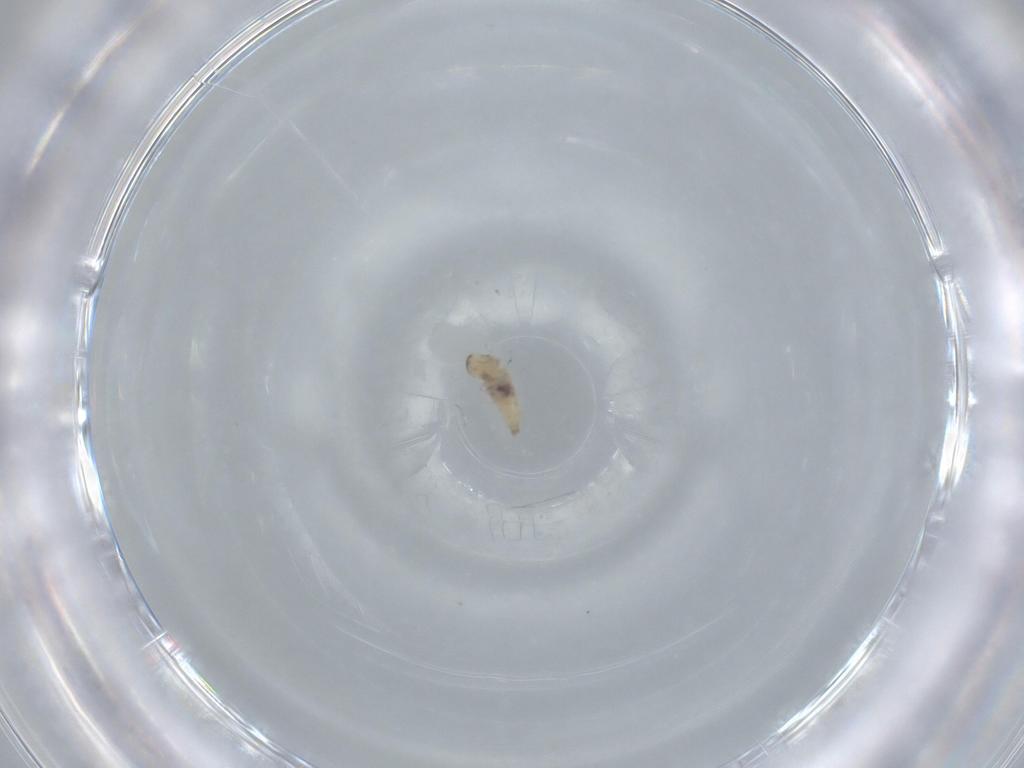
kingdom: Animalia
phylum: Arthropoda
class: Insecta
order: Diptera
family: Cecidomyiidae
